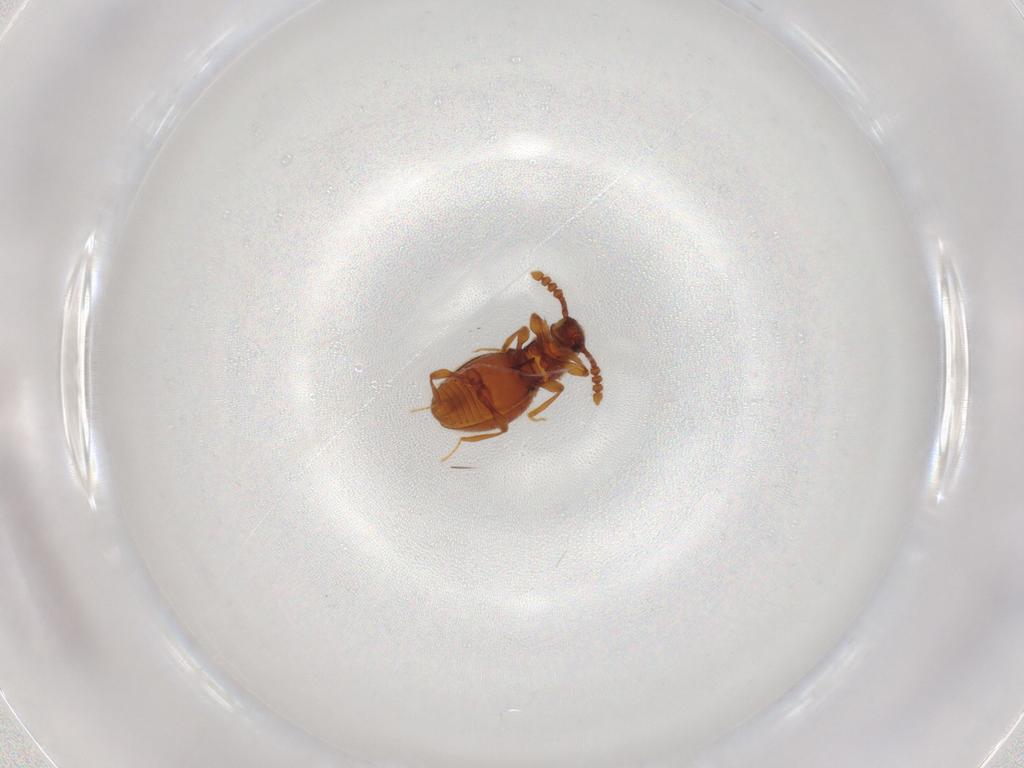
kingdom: Animalia
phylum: Arthropoda
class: Insecta
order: Coleoptera
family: Staphylinidae
